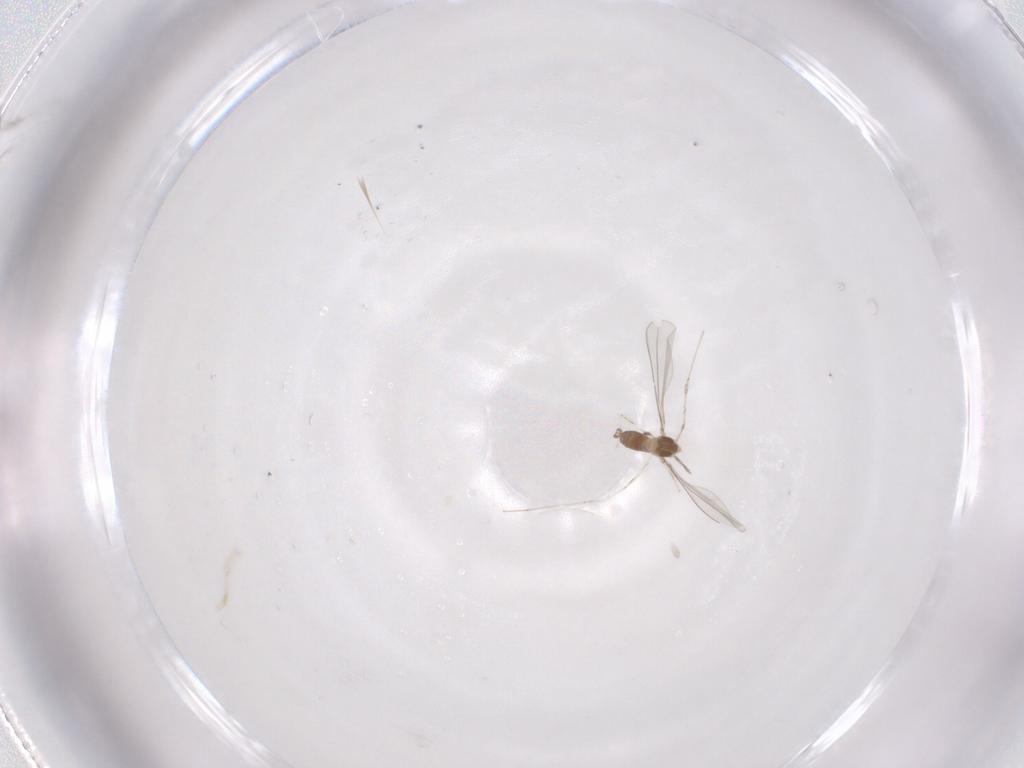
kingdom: Animalia
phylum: Arthropoda
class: Insecta
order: Diptera
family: Cecidomyiidae
